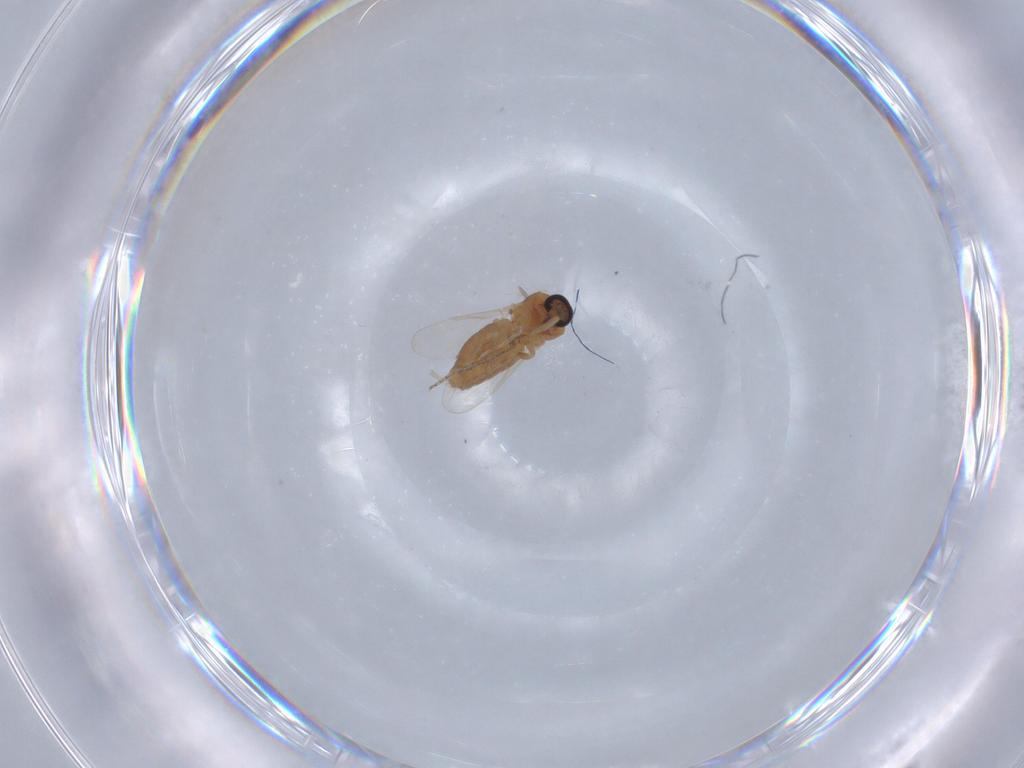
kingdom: Animalia
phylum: Arthropoda
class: Insecta
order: Diptera
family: Ceratopogonidae
